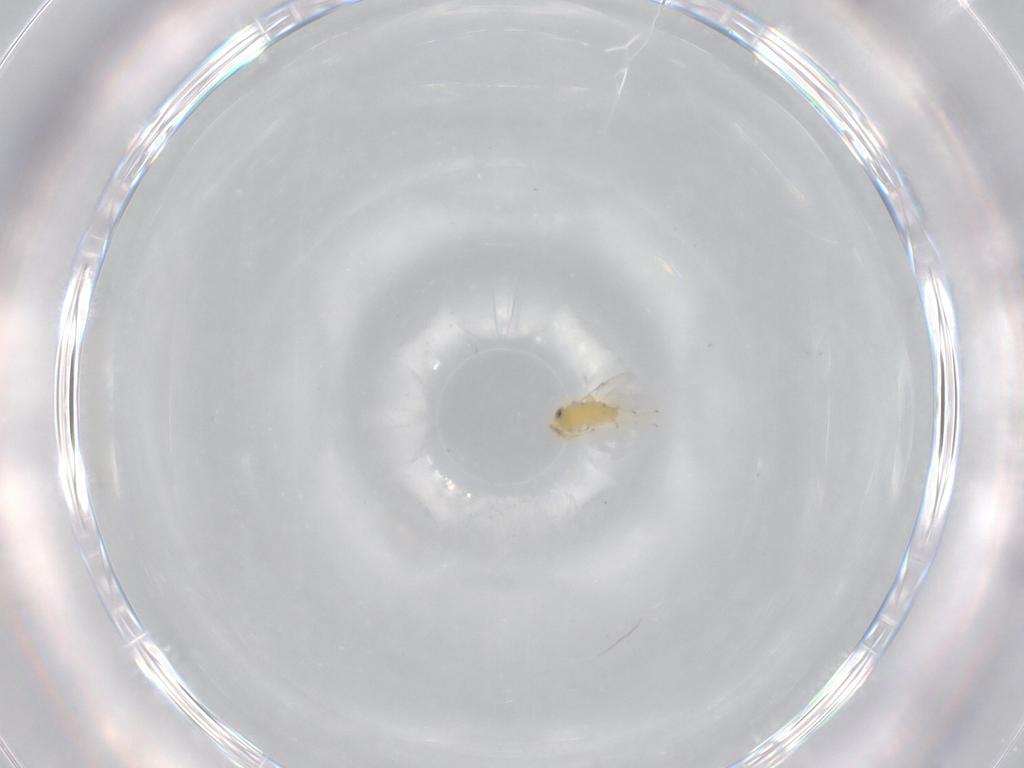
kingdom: Animalia
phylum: Arthropoda
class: Insecta
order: Hymenoptera
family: Encyrtidae
